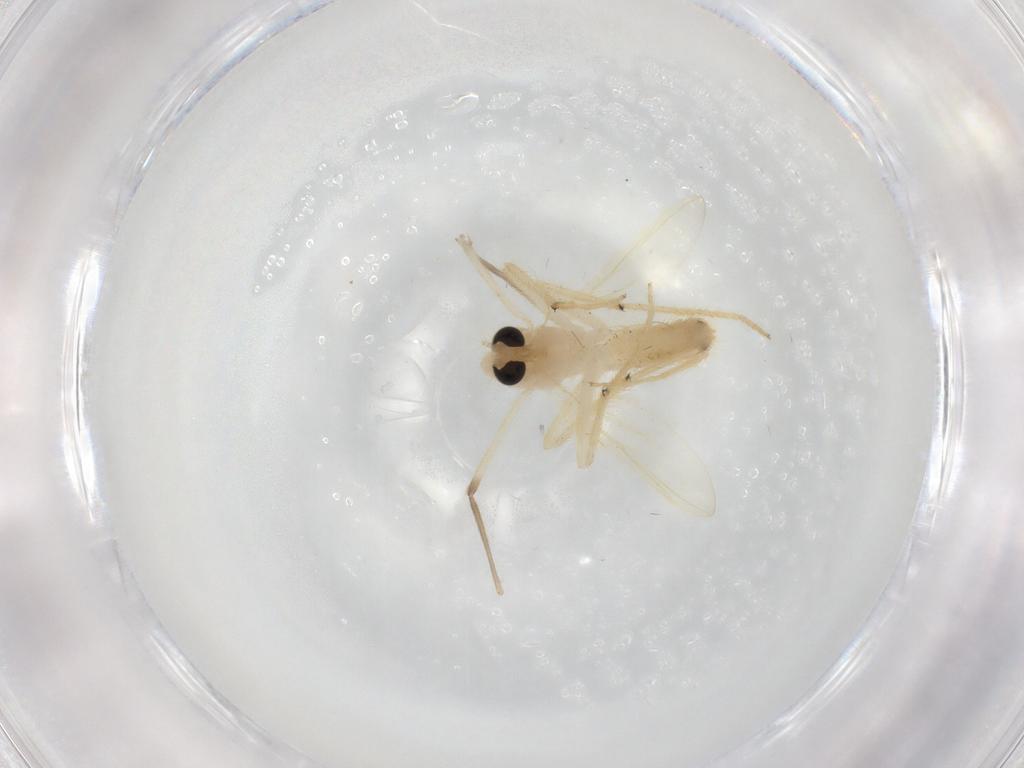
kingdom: Animalia
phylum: Arthropoda
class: Insecta
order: Diptera
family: Chironomidae
